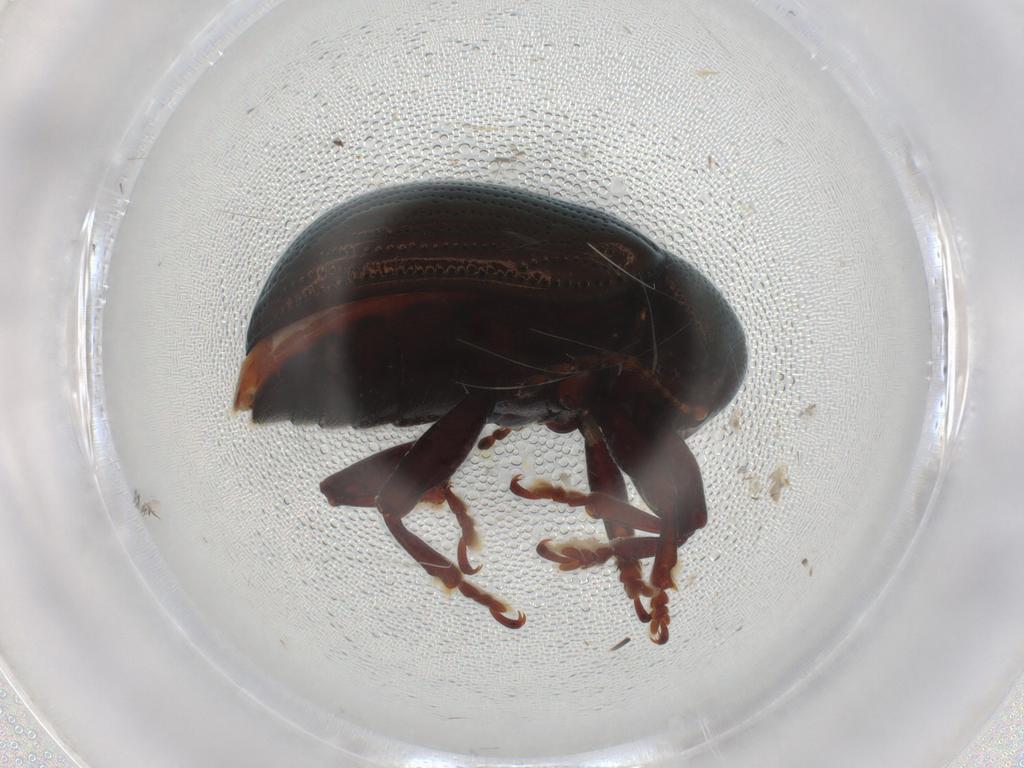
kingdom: Animalia
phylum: Arthropoda
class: Insecta
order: Coleoptera
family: Chrysomelidae
